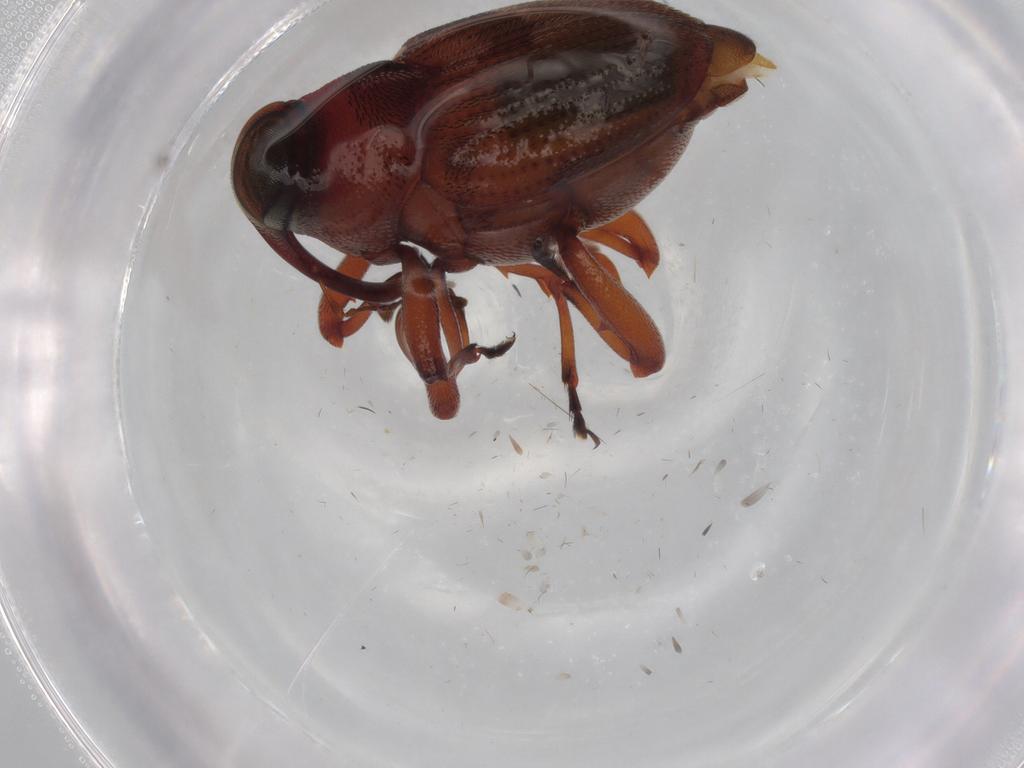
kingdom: Animalia
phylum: Arthropoda
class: Insecta
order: Coleoptera
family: Curculionidae
